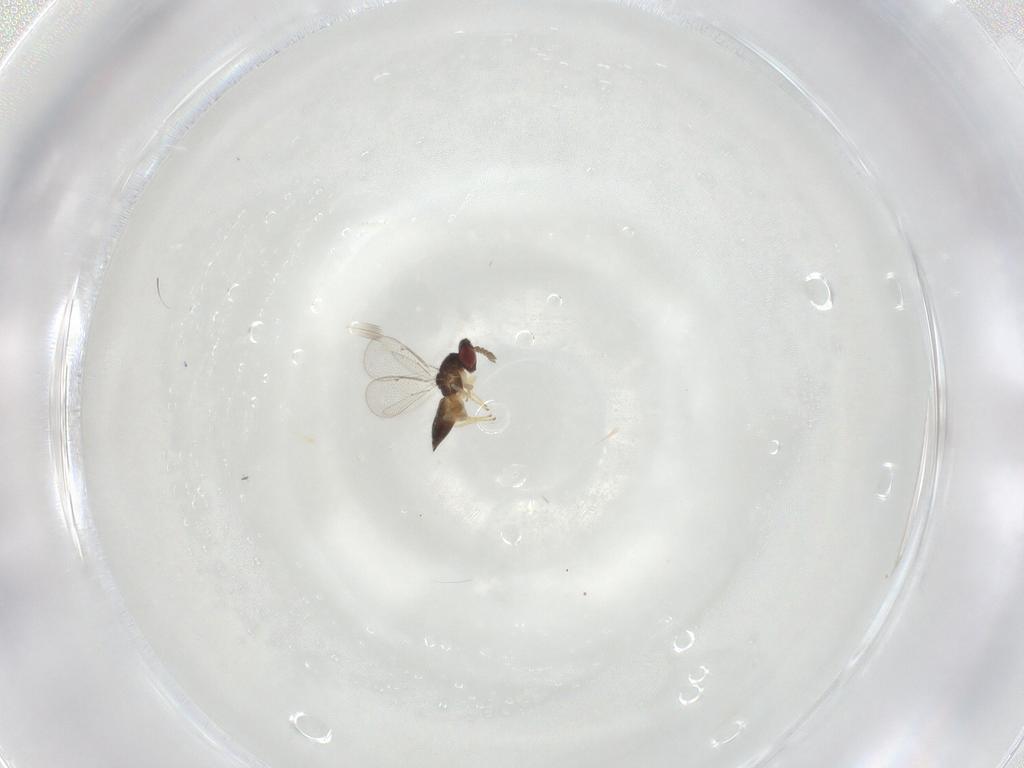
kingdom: Animalia
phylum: Arthropoda
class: Insecta
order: Hymenoptera
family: Eulophidae
